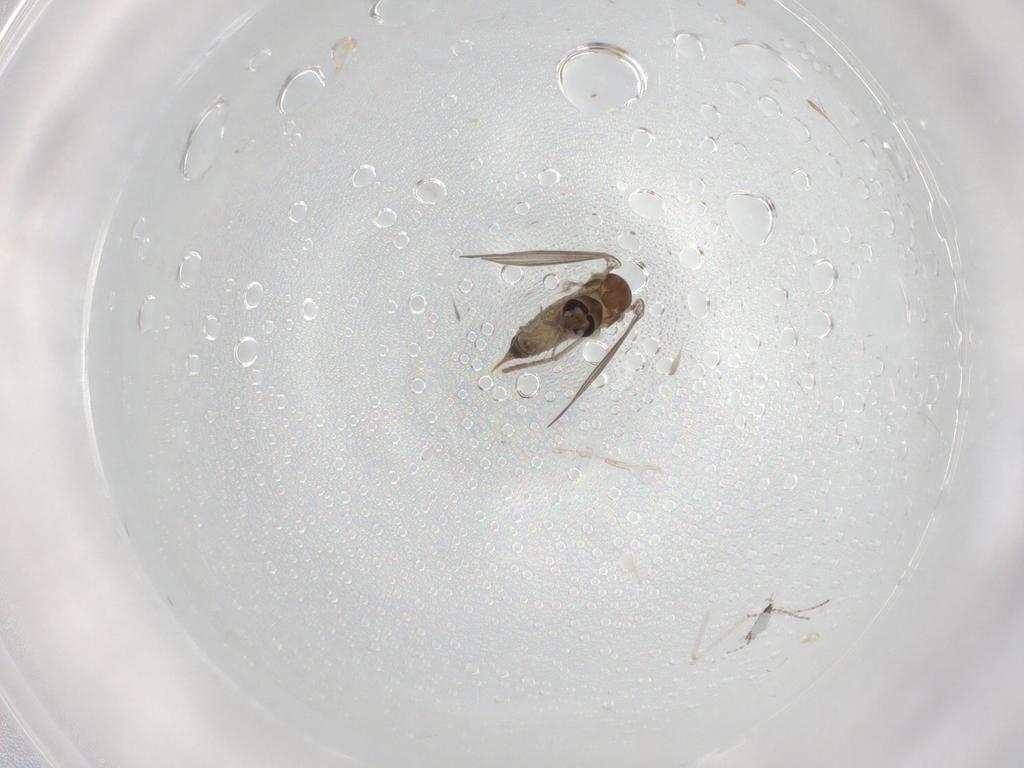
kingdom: Animalia
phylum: Arthropoda
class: Insecta
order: Diptera
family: Psychodidae
